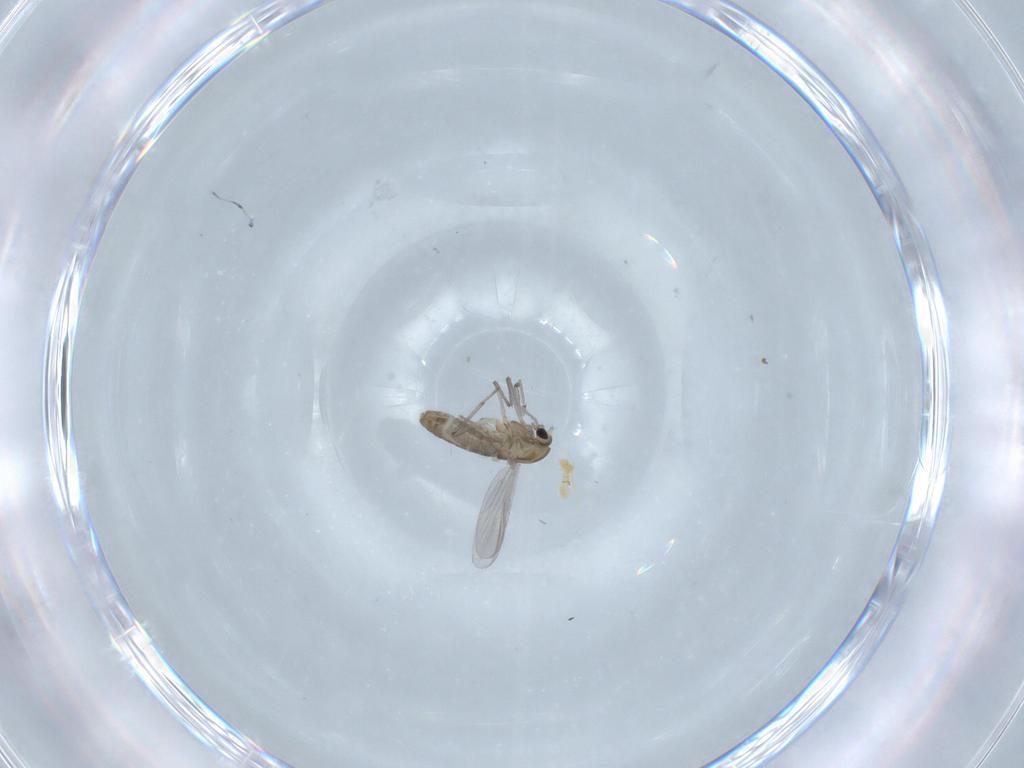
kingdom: Animalia
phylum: Arthropoda
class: Insecta
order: Diptera
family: Chironomidae
